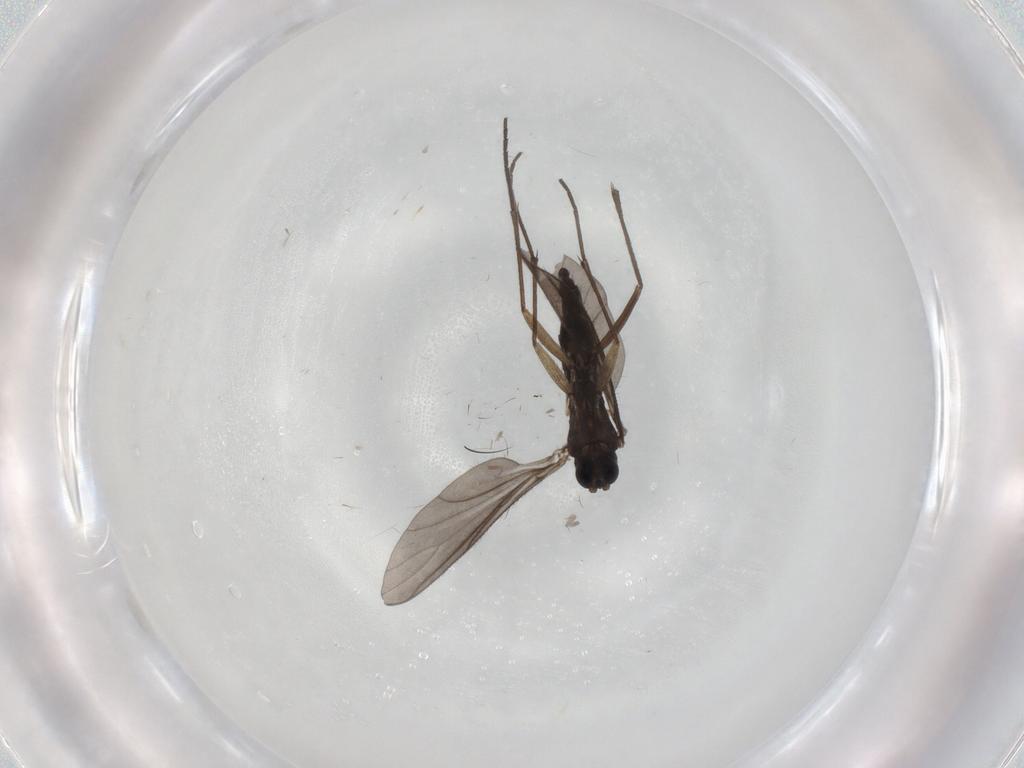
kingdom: Animalia
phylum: Arthropoda
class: Insecta
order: Diptera
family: Sciaridae
